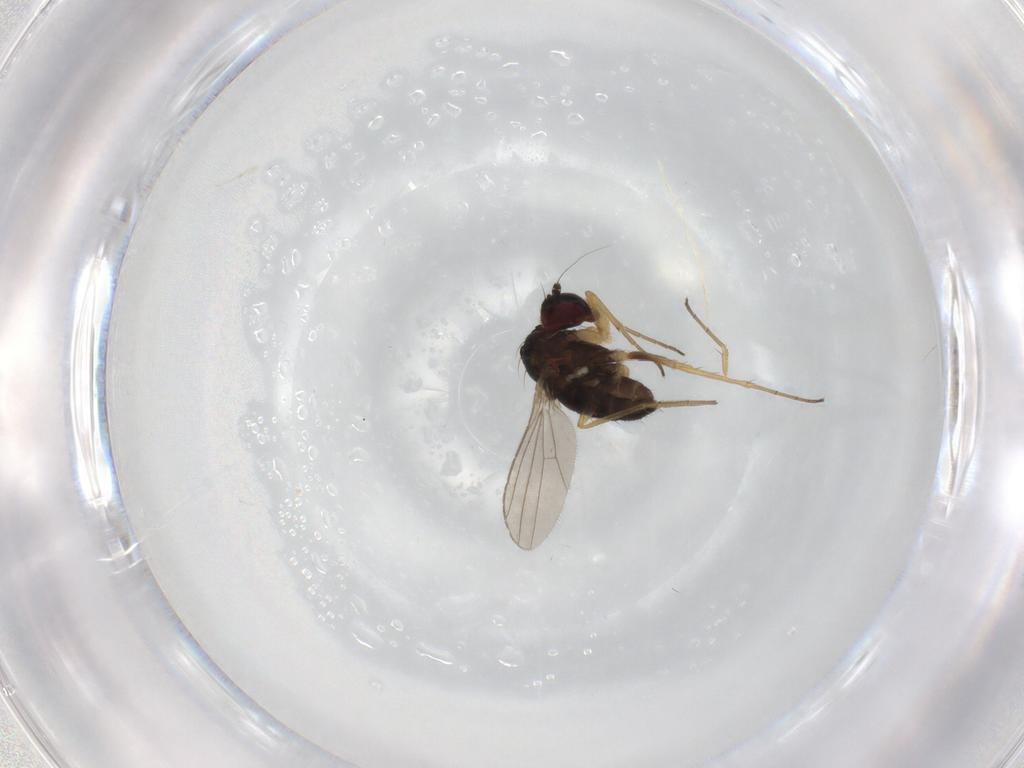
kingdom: Animalia
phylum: Arthropoda
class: Insecta
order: Diptera
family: Dolichopodidae
